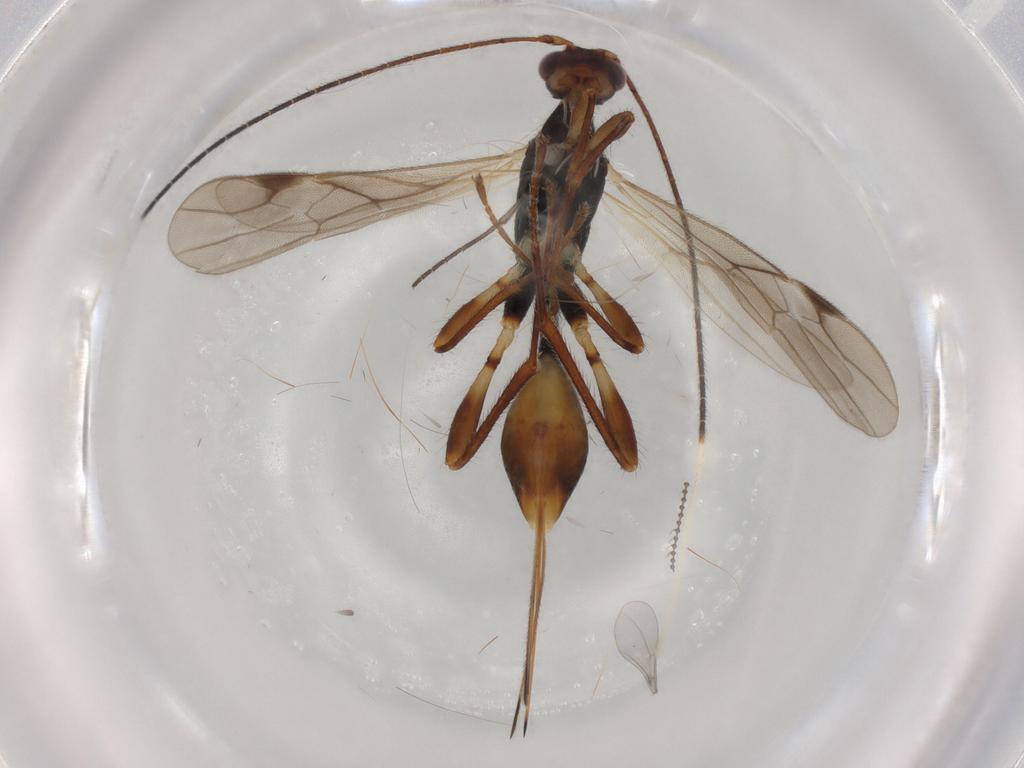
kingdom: Animalia
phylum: Arthropoda
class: Insecta
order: Hymenoptera
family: Braconidae
